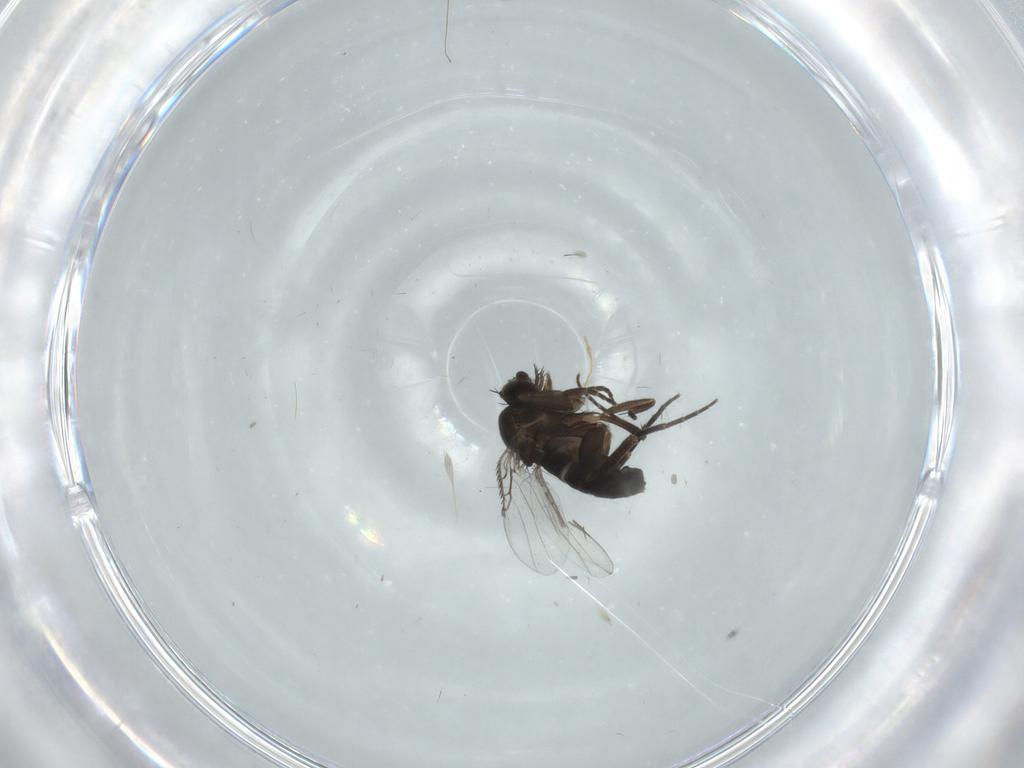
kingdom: Animalia
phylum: Arthropoda
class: Insecta
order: Diptera
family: Phoridae
